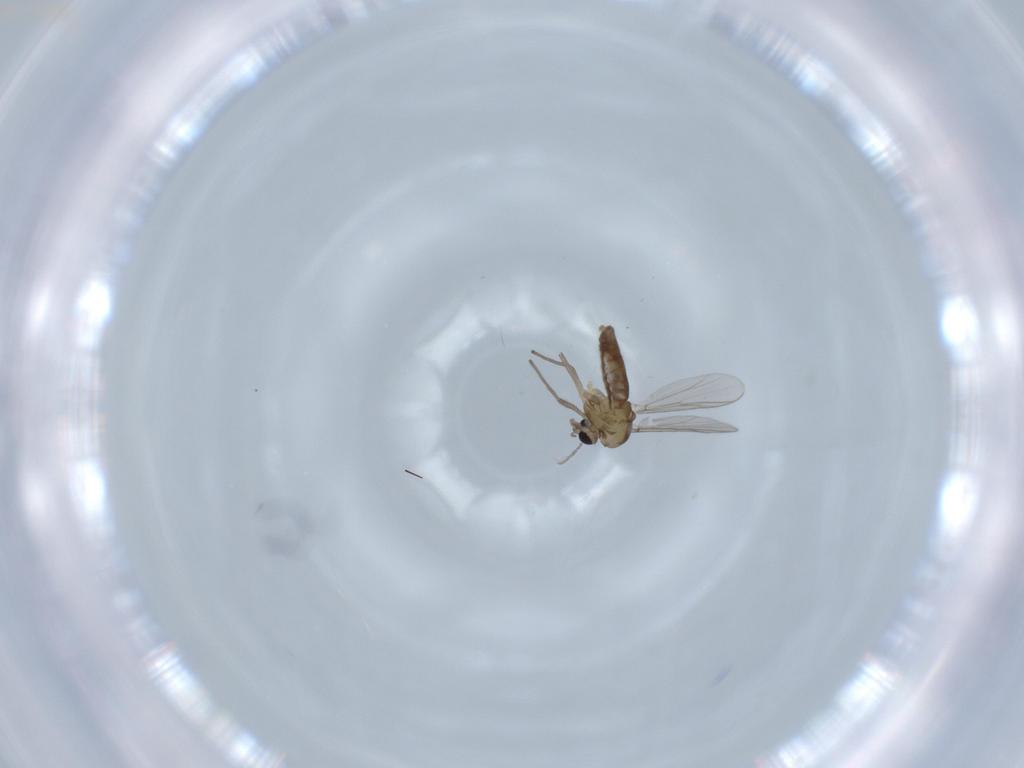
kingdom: Animalia
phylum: Arthropoda
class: Insecta
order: Diptera
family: Chironomidae
